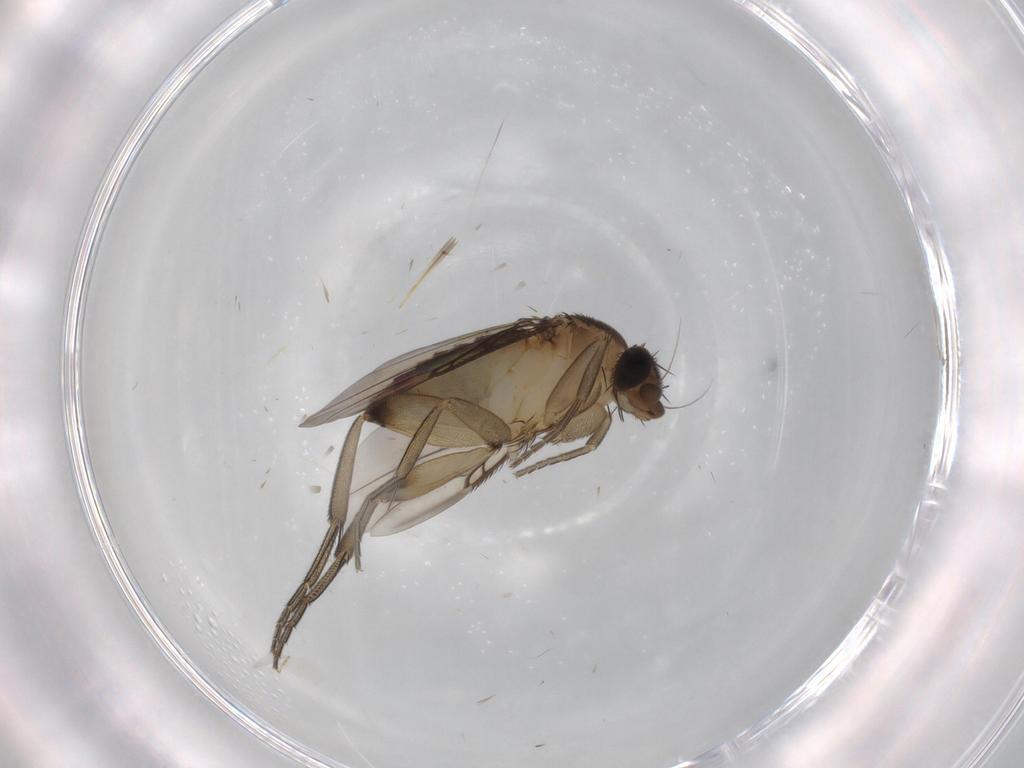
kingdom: Animalia
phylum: Arthropoda
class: Insecta
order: Diptera
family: Phoridae
